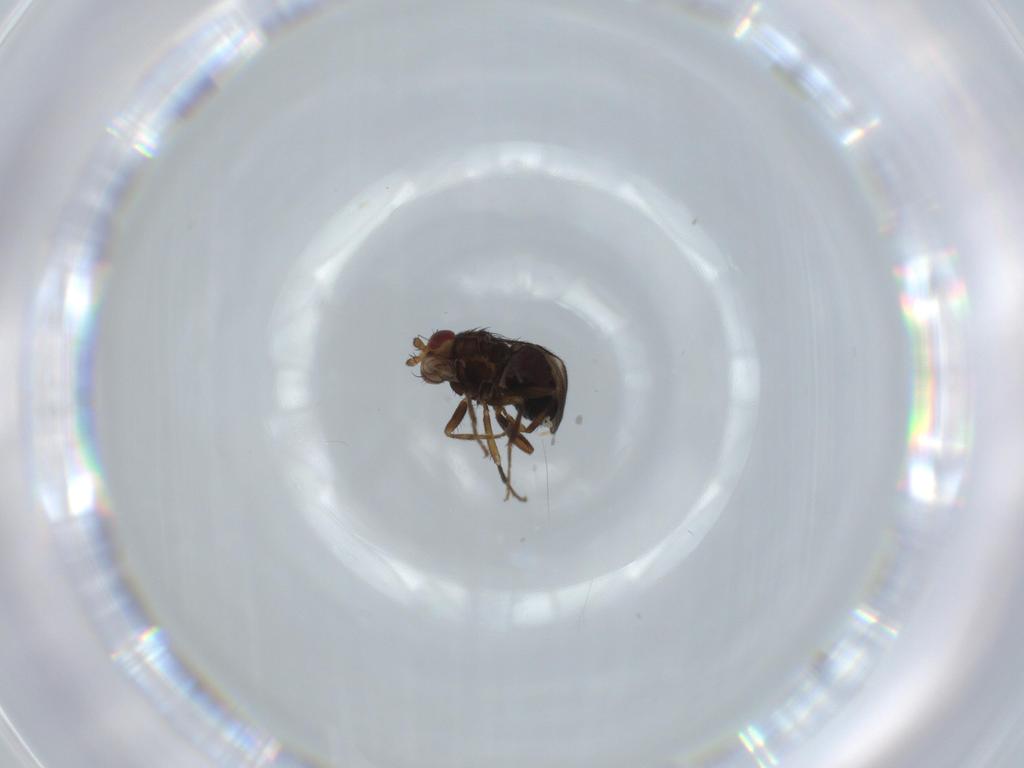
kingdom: Animalia
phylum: Arthropoda
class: Insecta
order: Diptera
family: Sphaeroceridae
